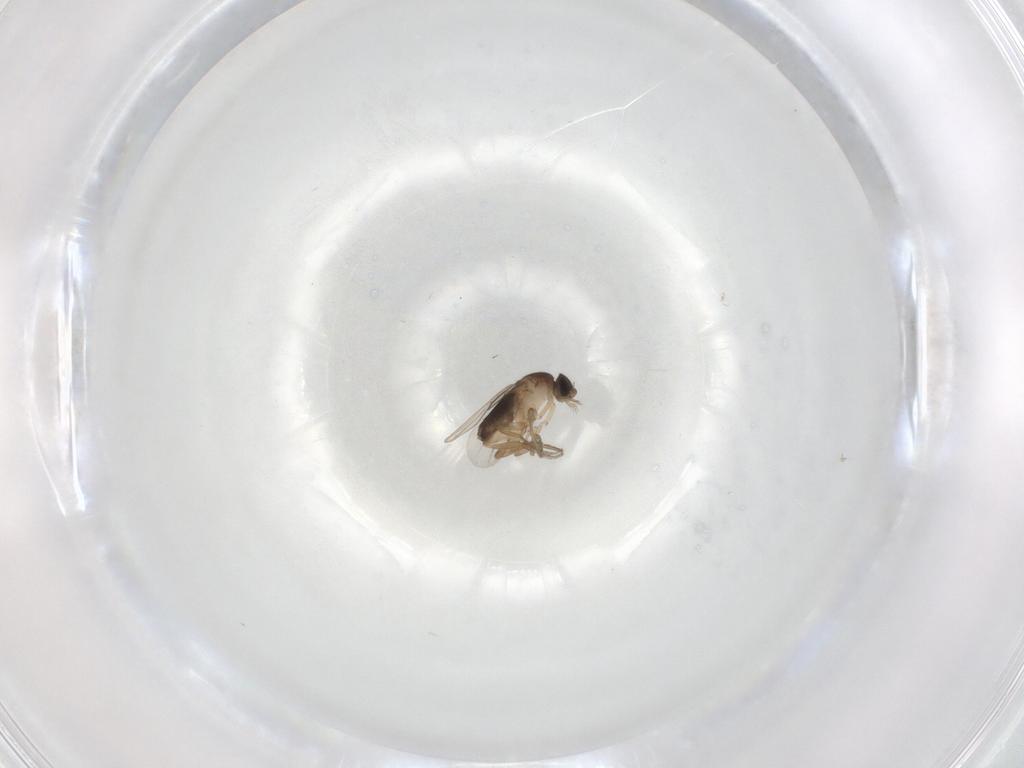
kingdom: Animalia
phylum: Arthropoda
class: Insecta
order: Diptera
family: Phoridae
